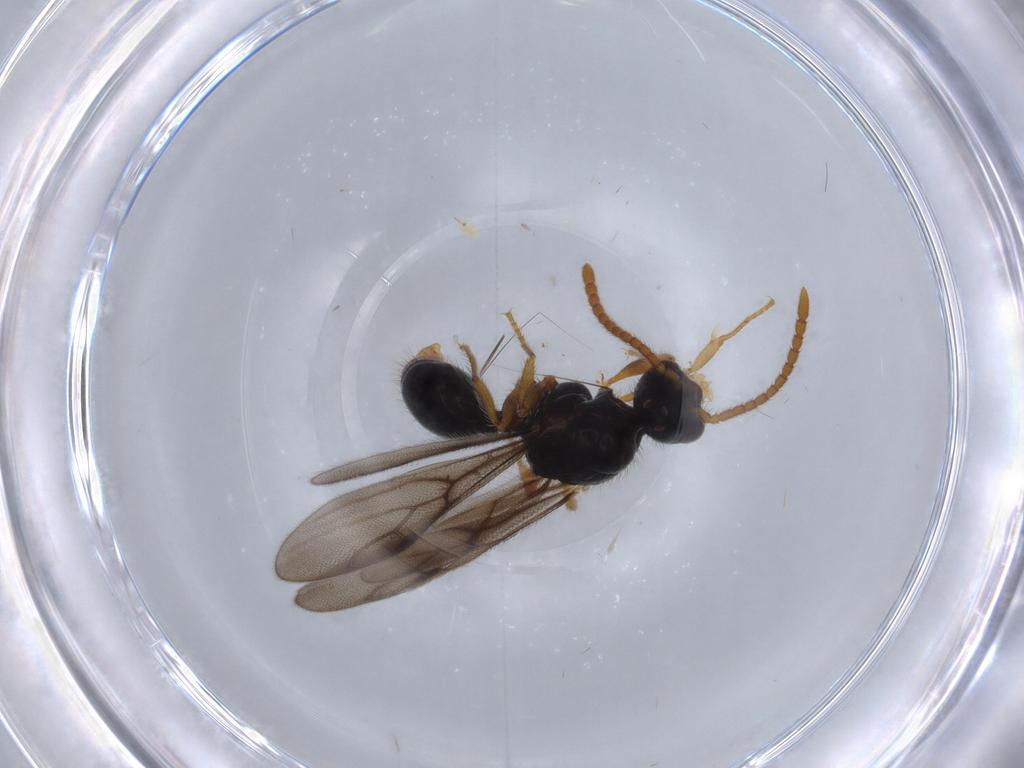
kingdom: Animalia
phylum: Arthropoda
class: Insecta
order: Hymenoptera
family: Formicidae
